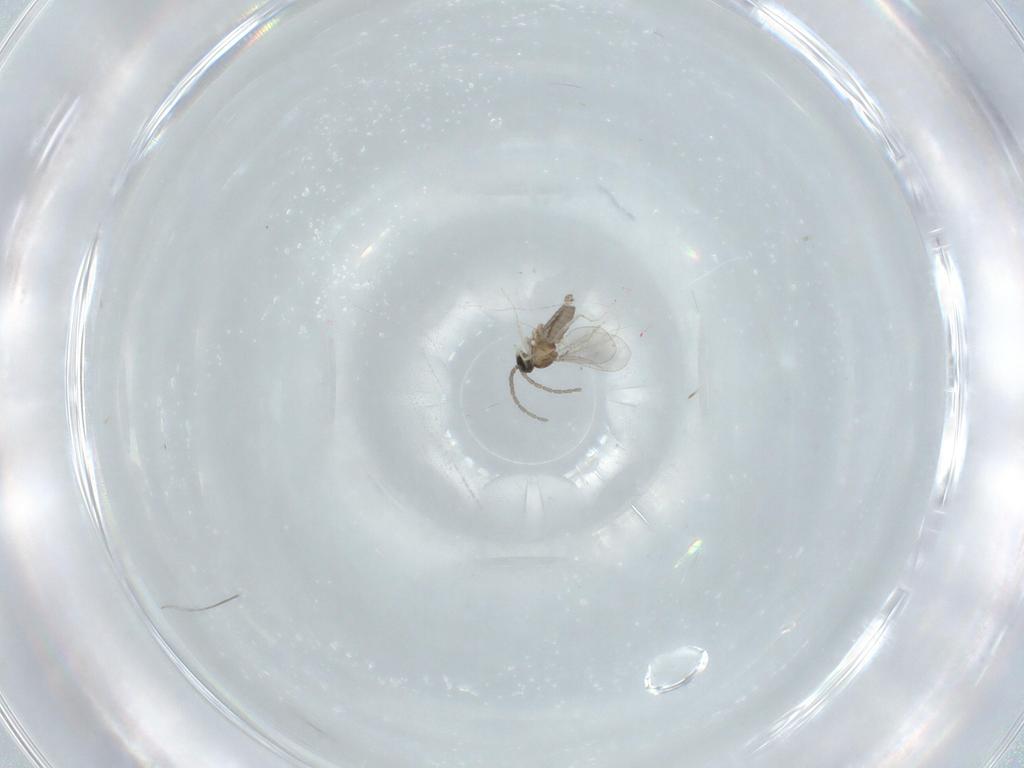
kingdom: Animalia
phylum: Arthropoda
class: Insecta
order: Diptera
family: Cecidomyiidae
